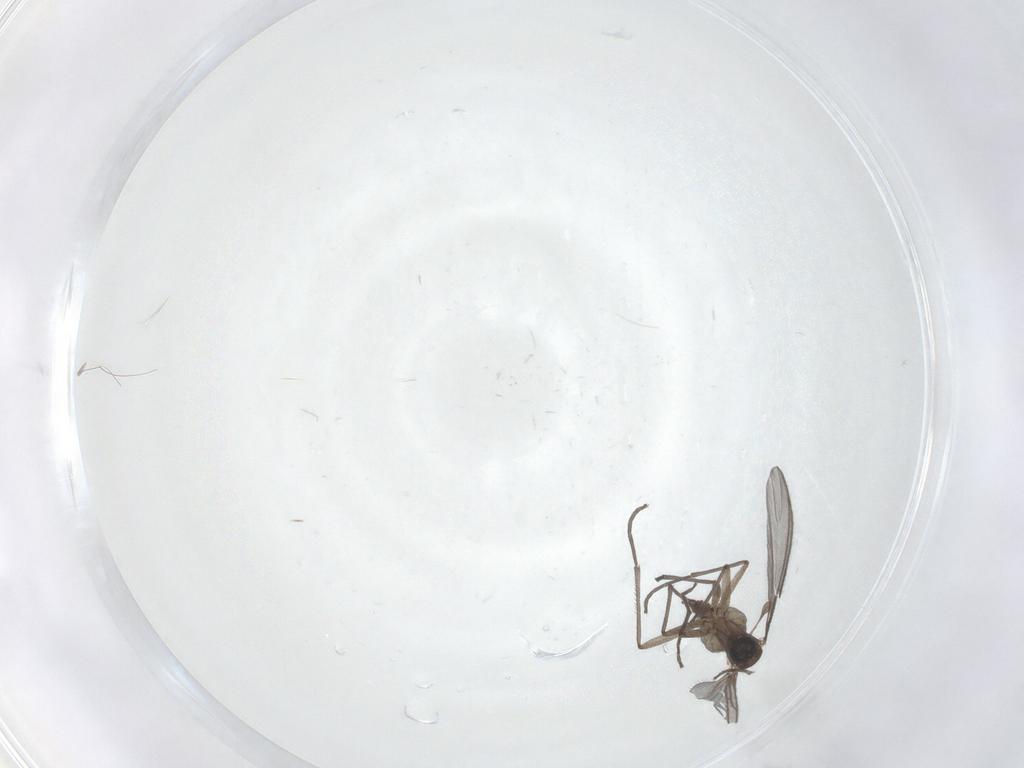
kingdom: Animalia
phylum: Arthropoda
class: Insecta
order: Diptera
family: Sciaridae
